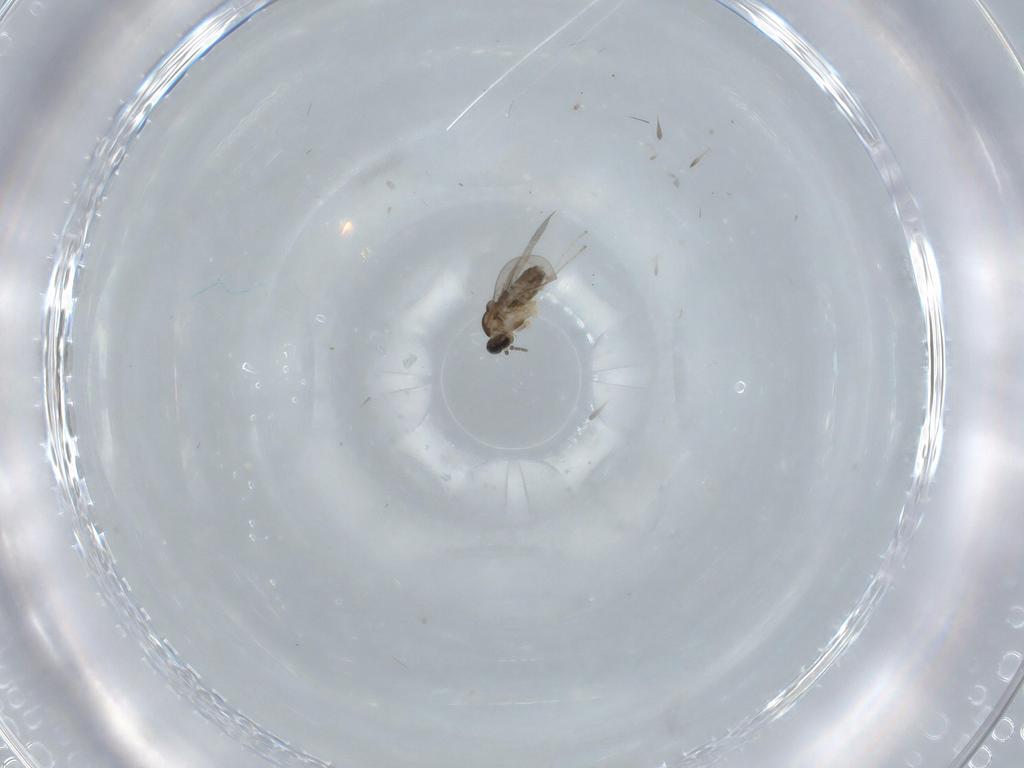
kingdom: Animalia
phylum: Arthropoda
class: Insecta
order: Diptera
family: Cecidomyiidae
